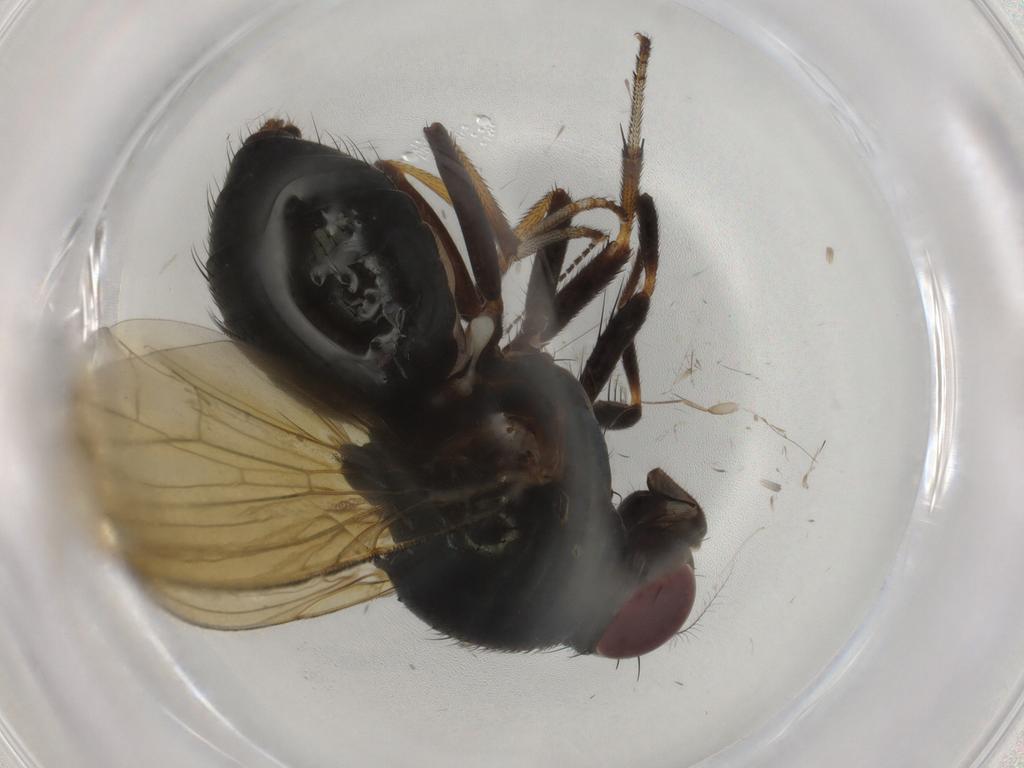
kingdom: Animalia
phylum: Arthropoda
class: Insecta
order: Diptera
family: Lauxaniidae
